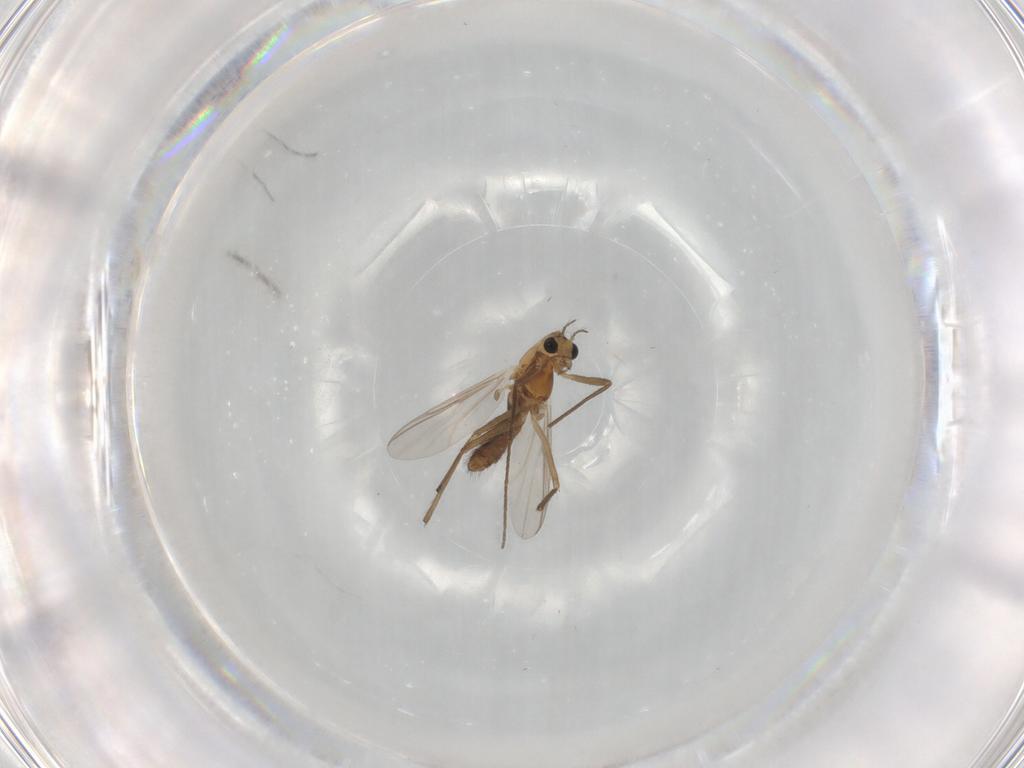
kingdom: Animalia
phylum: Arthropoda
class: Insecta
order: Diptera
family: Chironomidae
